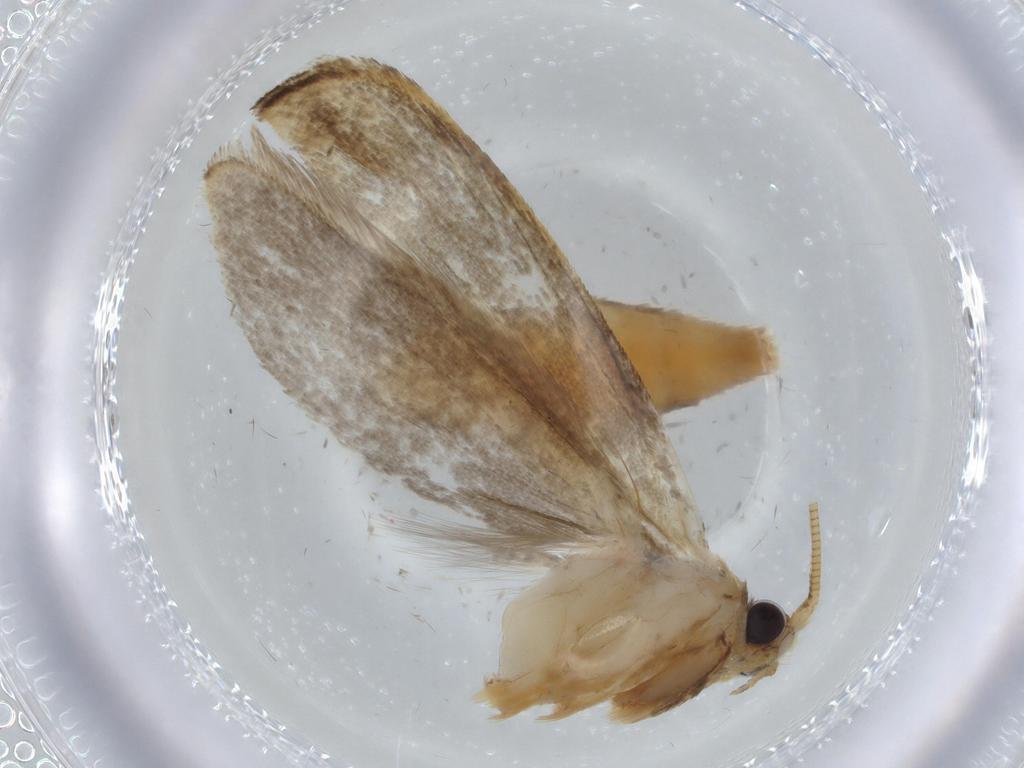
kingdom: Animalia
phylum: Arthropoda
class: Insecta
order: Lepidoptera
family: Tineidae
